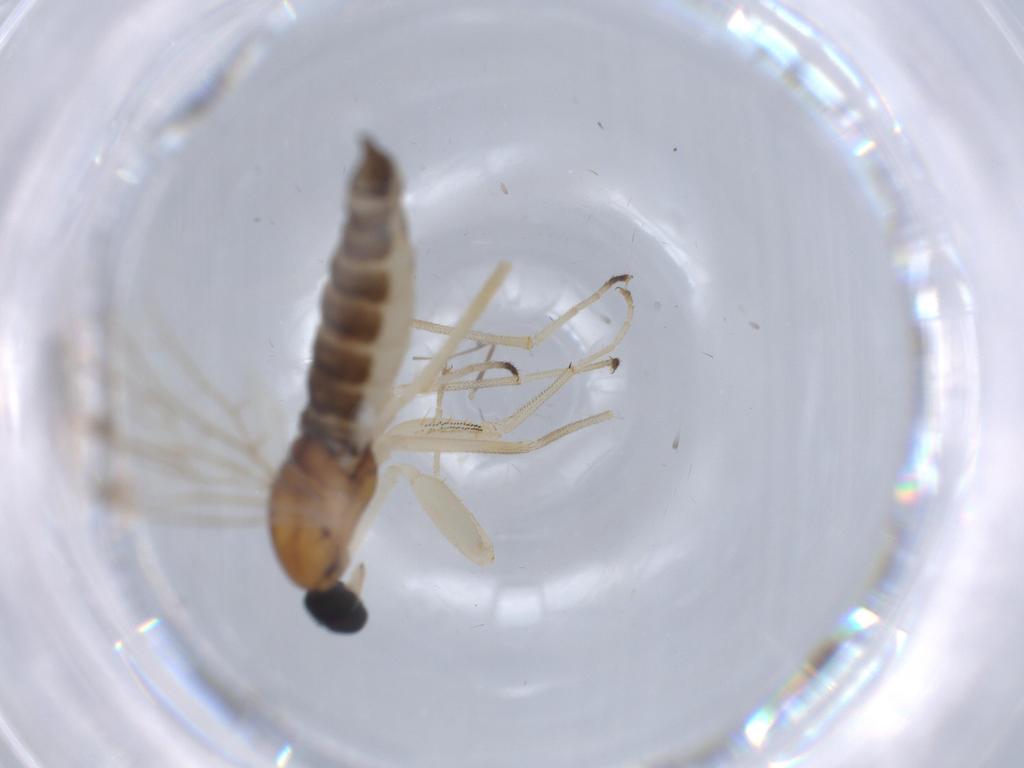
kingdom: Animalia
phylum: Arthropoda
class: Insecta
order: Diptera
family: Empididae
